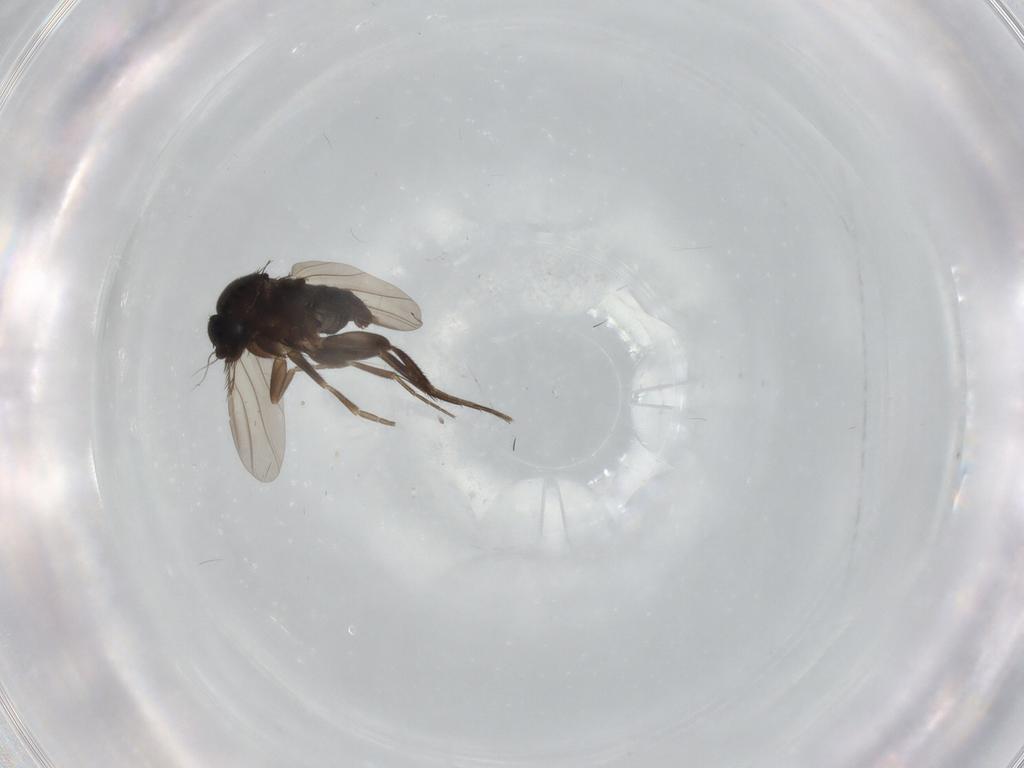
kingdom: Animalia
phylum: Arthropoda
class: Insecta
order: Diptera
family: Phoridae
